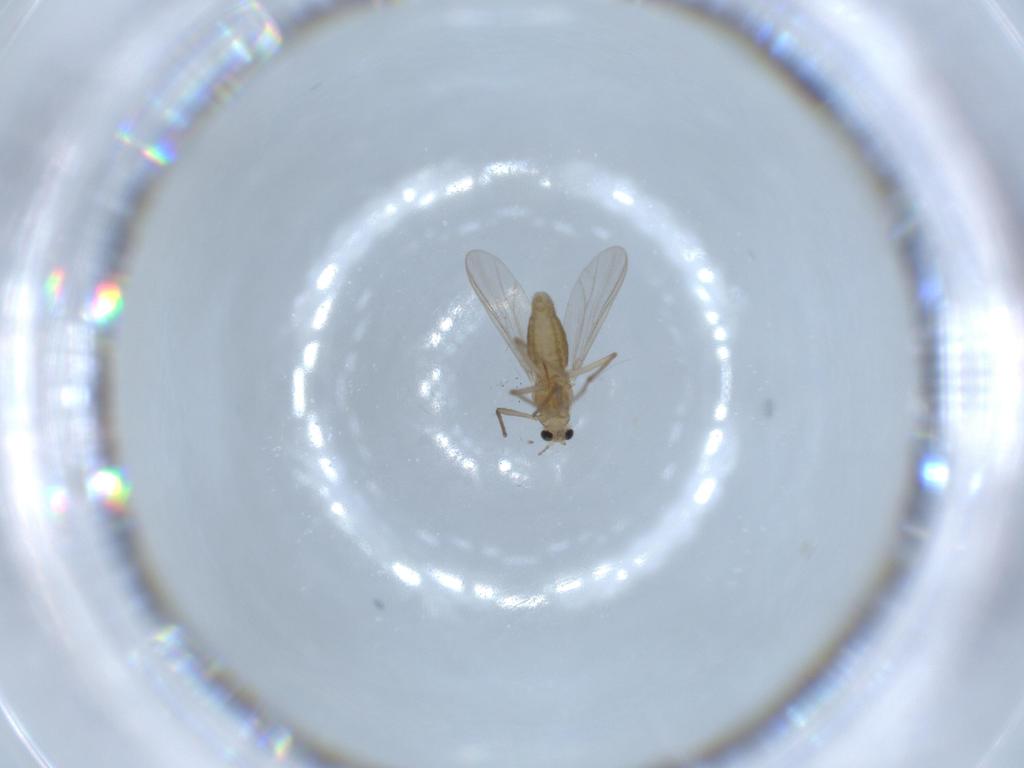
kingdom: Animalia
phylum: Arthropoda
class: Insecta
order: Diptera
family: Chironomidae
